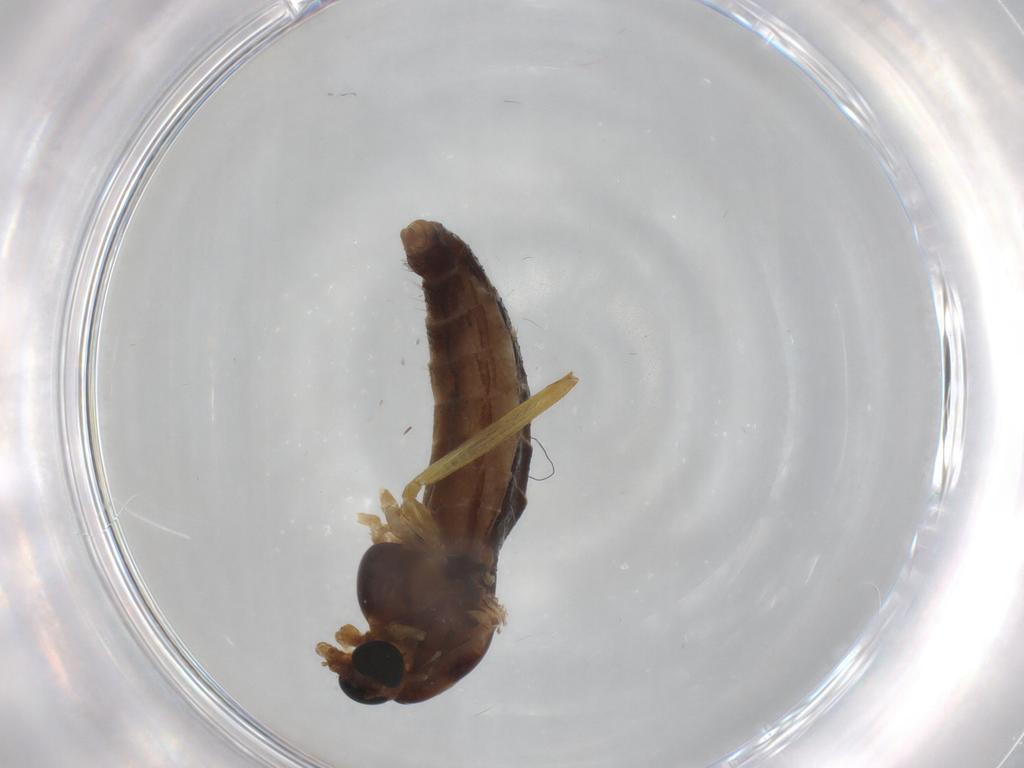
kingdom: Animalia
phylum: Arthropoda
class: Insecta
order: Diptera
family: Chironomidae
